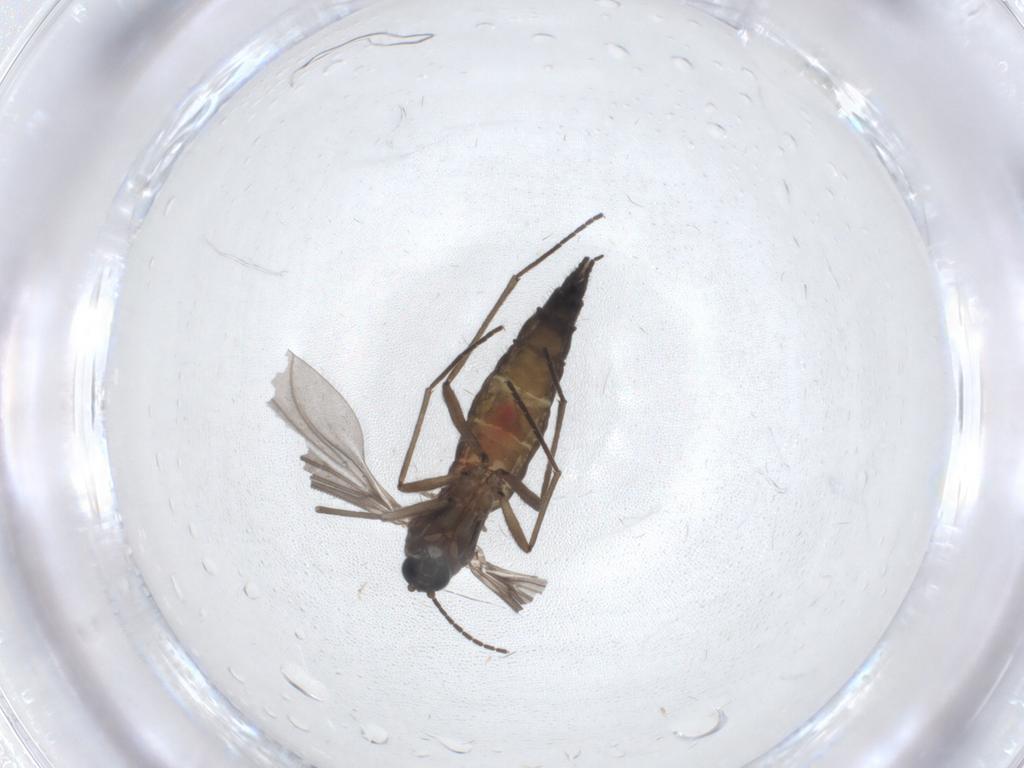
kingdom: Animalia
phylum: Arthropoda
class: Insecta
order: Diptera
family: Sciaridae
